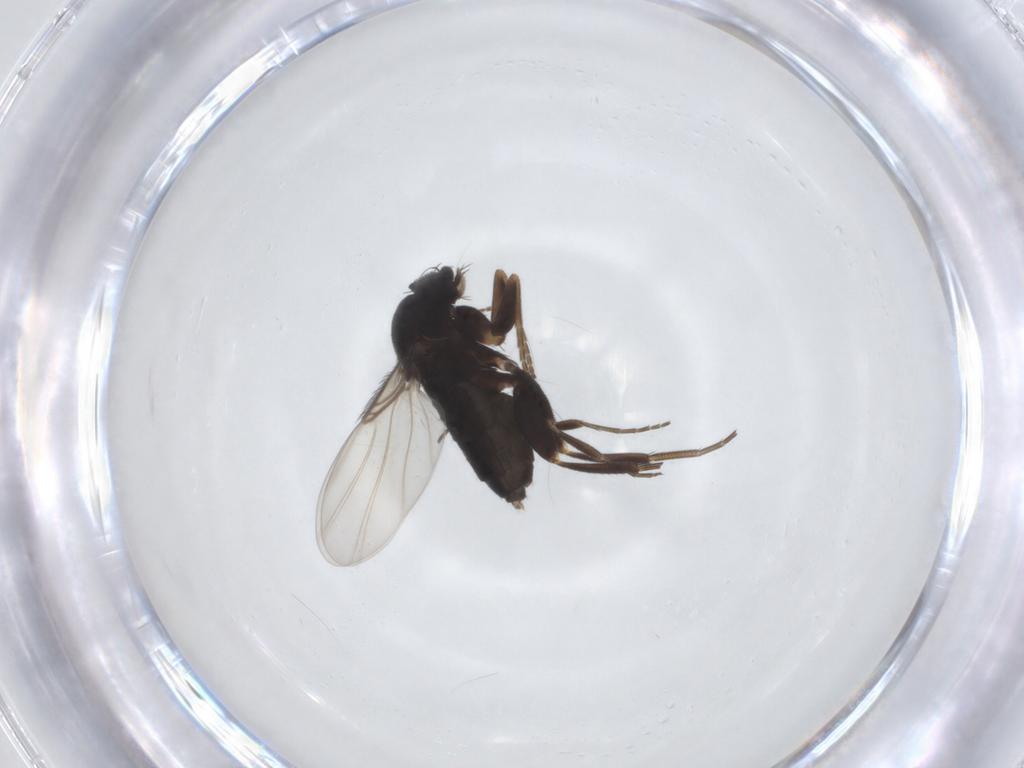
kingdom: Animalia
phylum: Arthropoda
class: Insecta
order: Diptera
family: Phoridae
